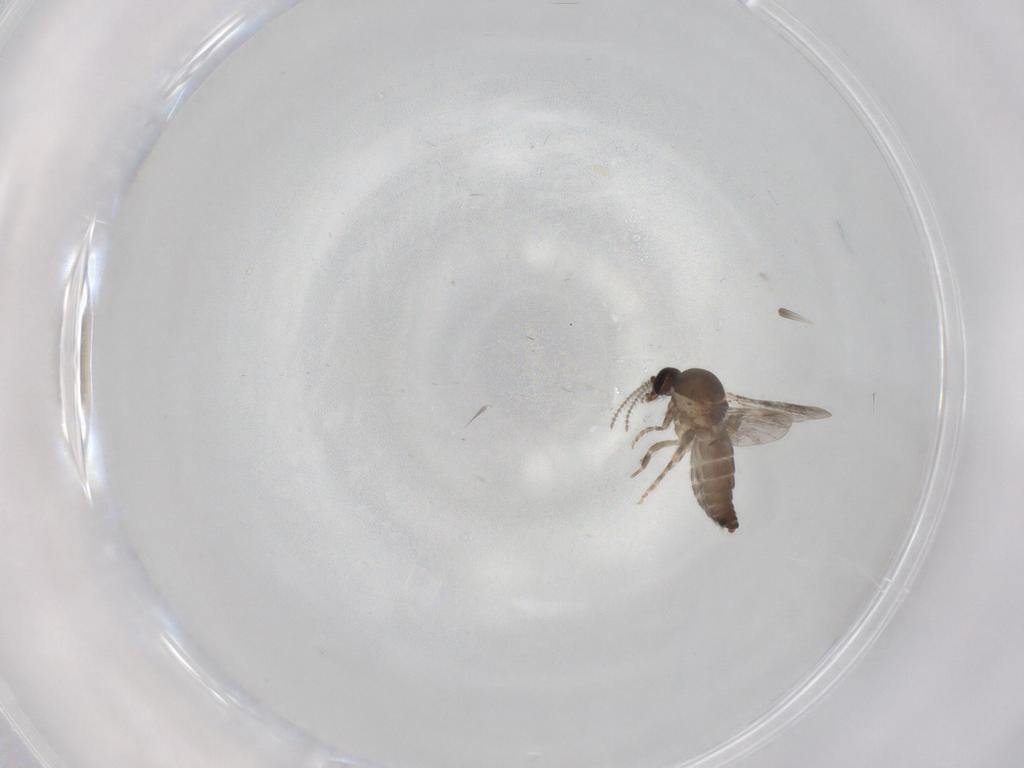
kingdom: Animalia
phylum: Arthropoda
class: Insecta
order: Diptera
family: Ceratopogonidae
